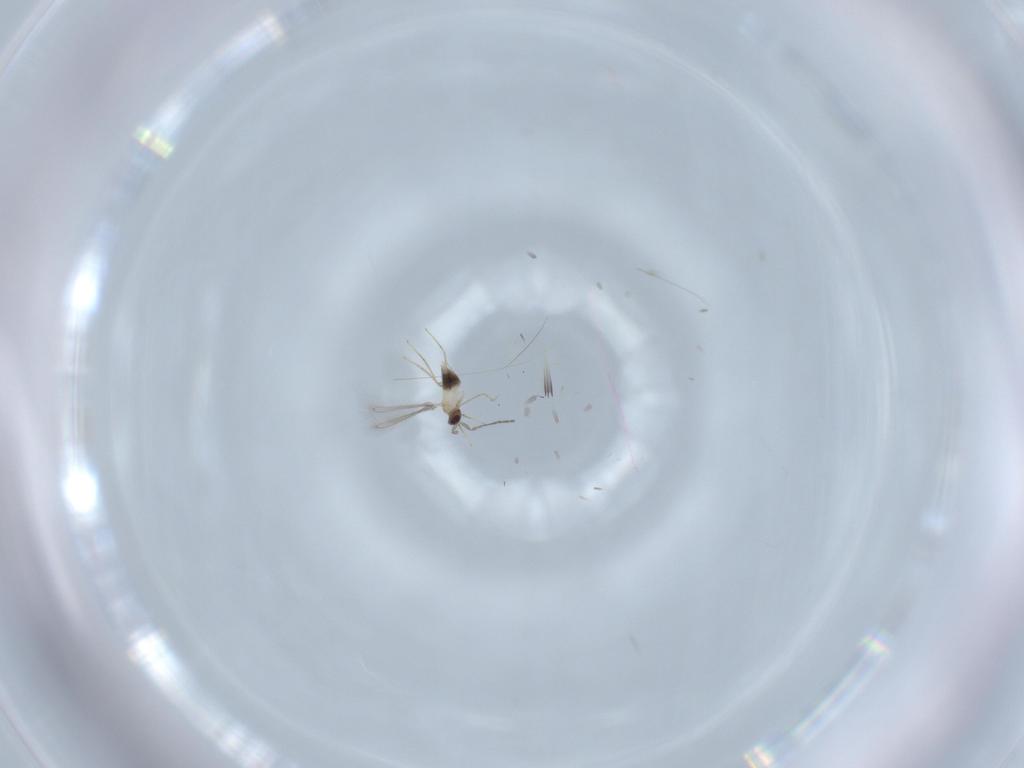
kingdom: Animalia
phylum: Arthropoda
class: Insecta
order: Hymenoptera
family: Mymaridae
